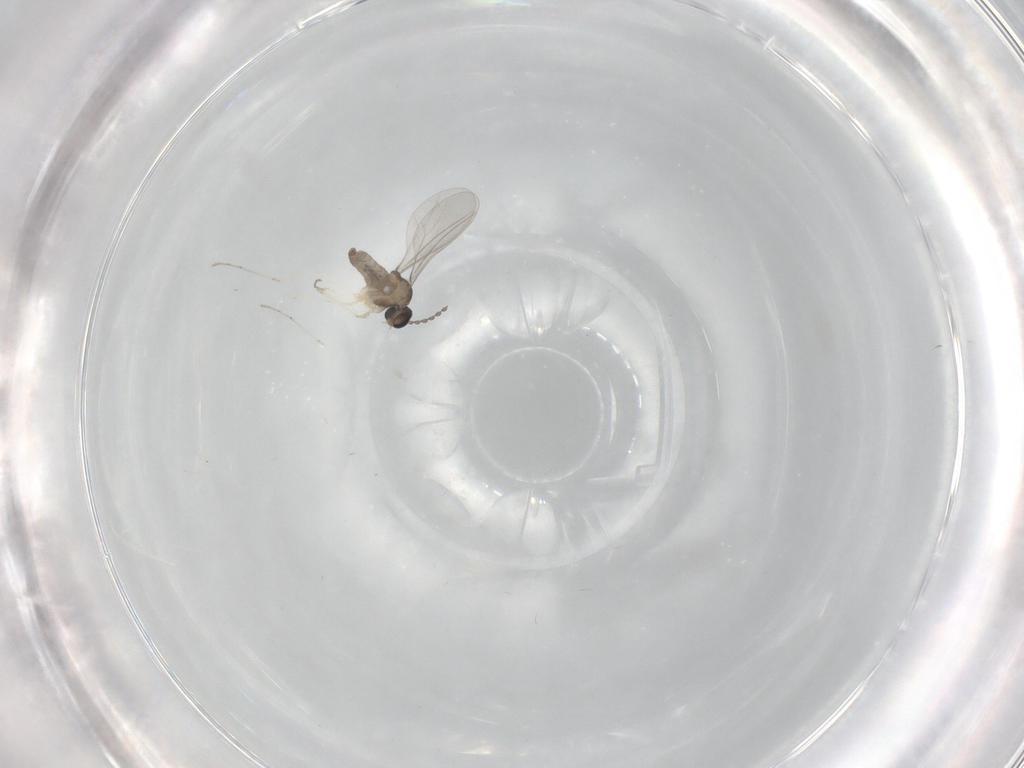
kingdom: Animalia
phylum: Arthropoda
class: Insecta
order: Diptera
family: Cecidomyiidae
